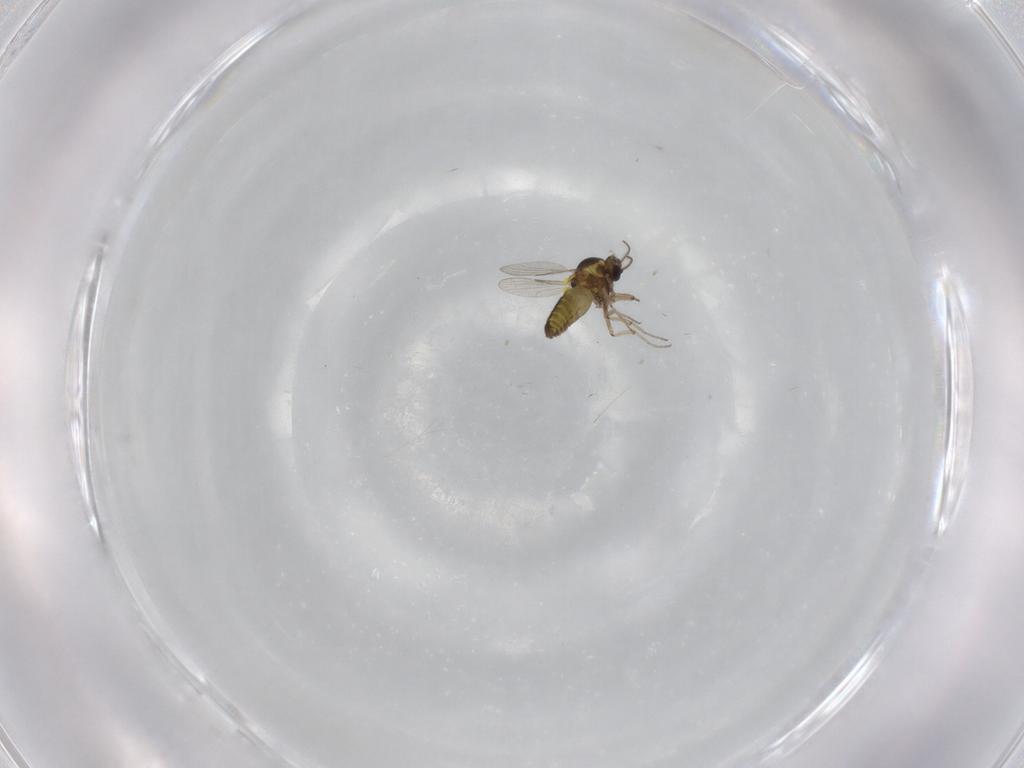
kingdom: Animalia
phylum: Arthropoda
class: Insecta
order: Diptera
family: Ceratopogonidae
